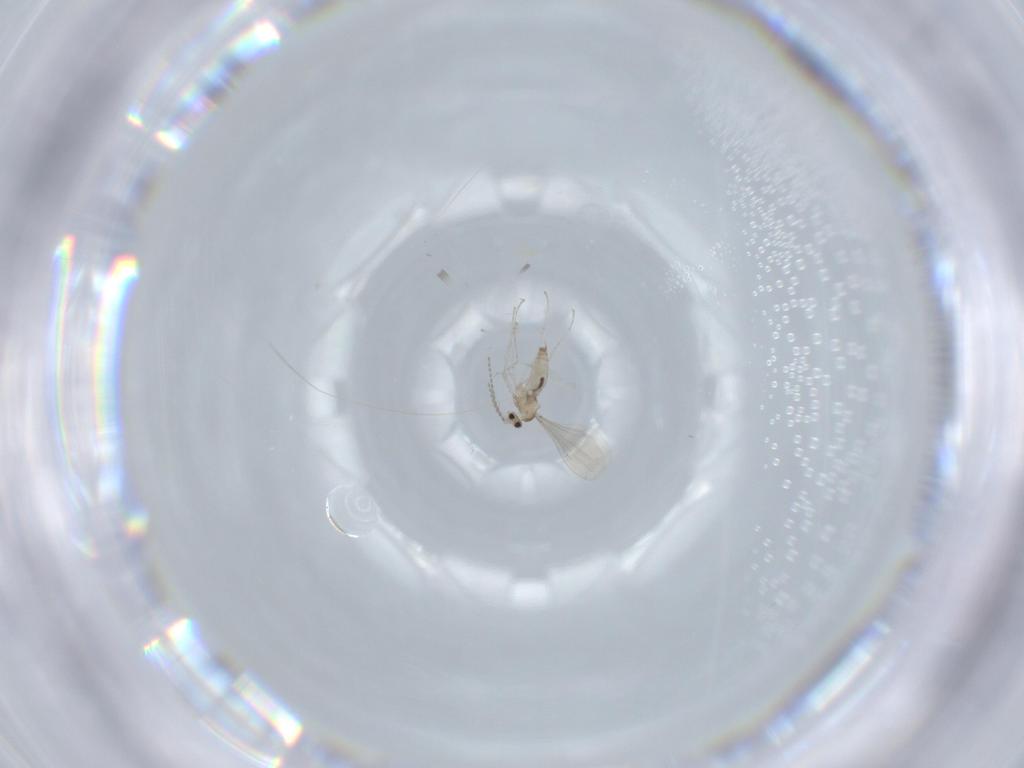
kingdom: Animalia
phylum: Arthropoda
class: Insecta
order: Diptera
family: Cecidomyiidae
